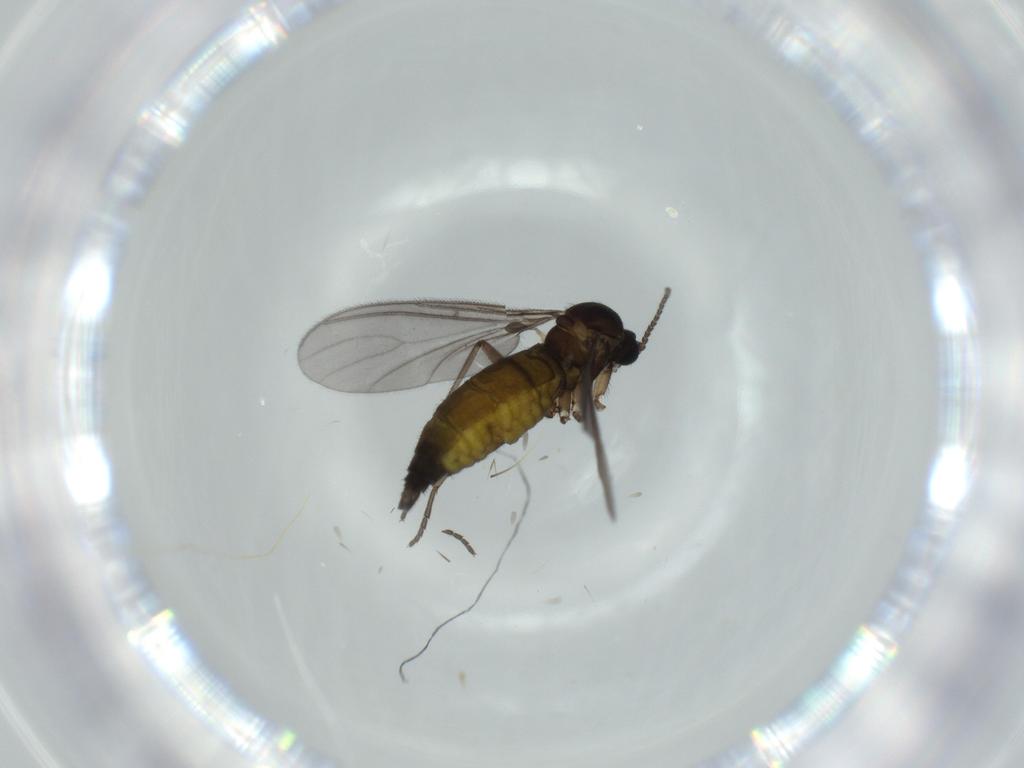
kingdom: Animalia
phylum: Arthropoda
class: Insecta
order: Diptera
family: Sciaridae
